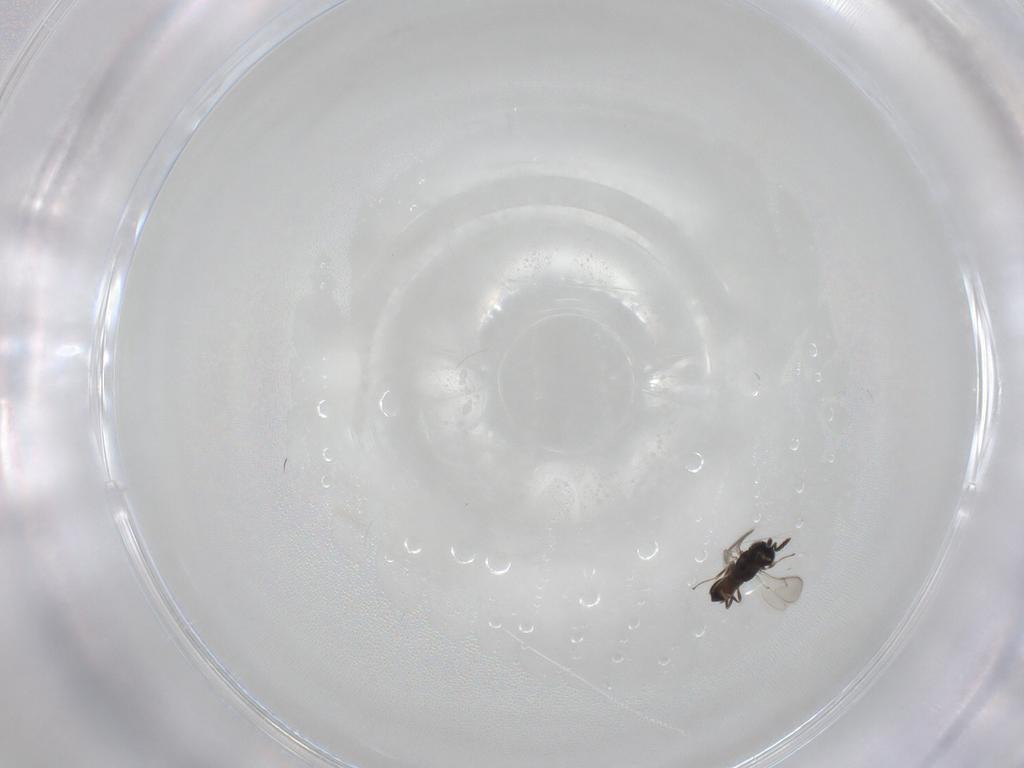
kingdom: Animalia
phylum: Arthropoda
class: Insecta
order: Hymenoptera
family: Scelionidae
